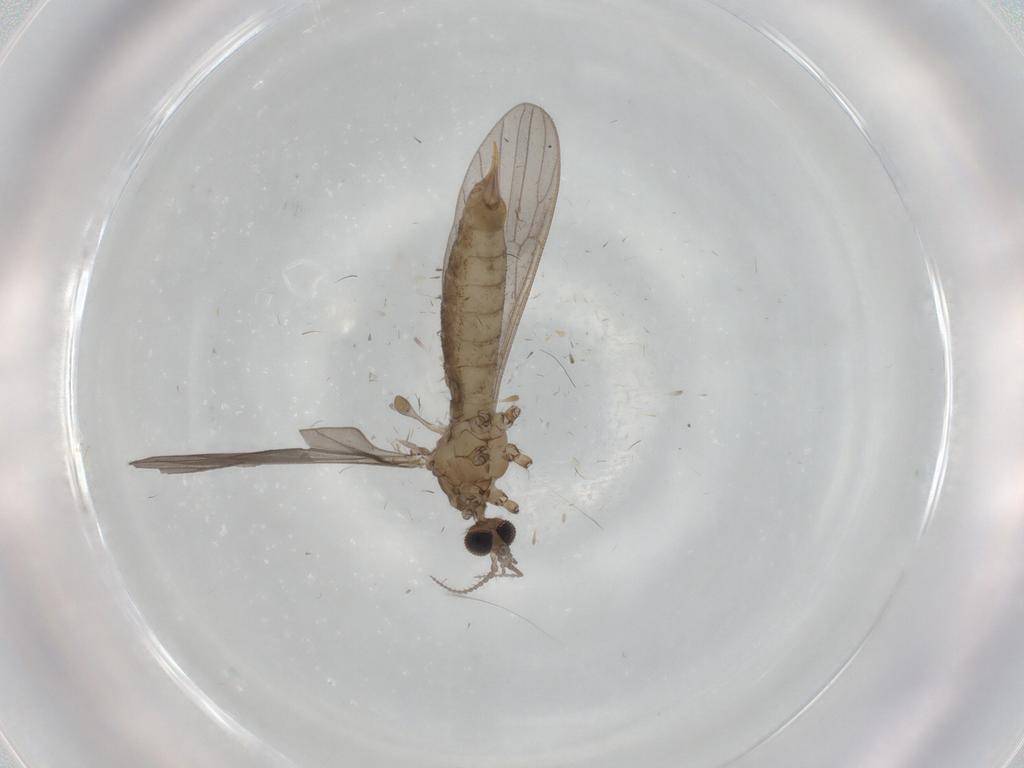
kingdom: Animalia
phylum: Arthropoda
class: Insecta
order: Diptera
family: Limoniidae
